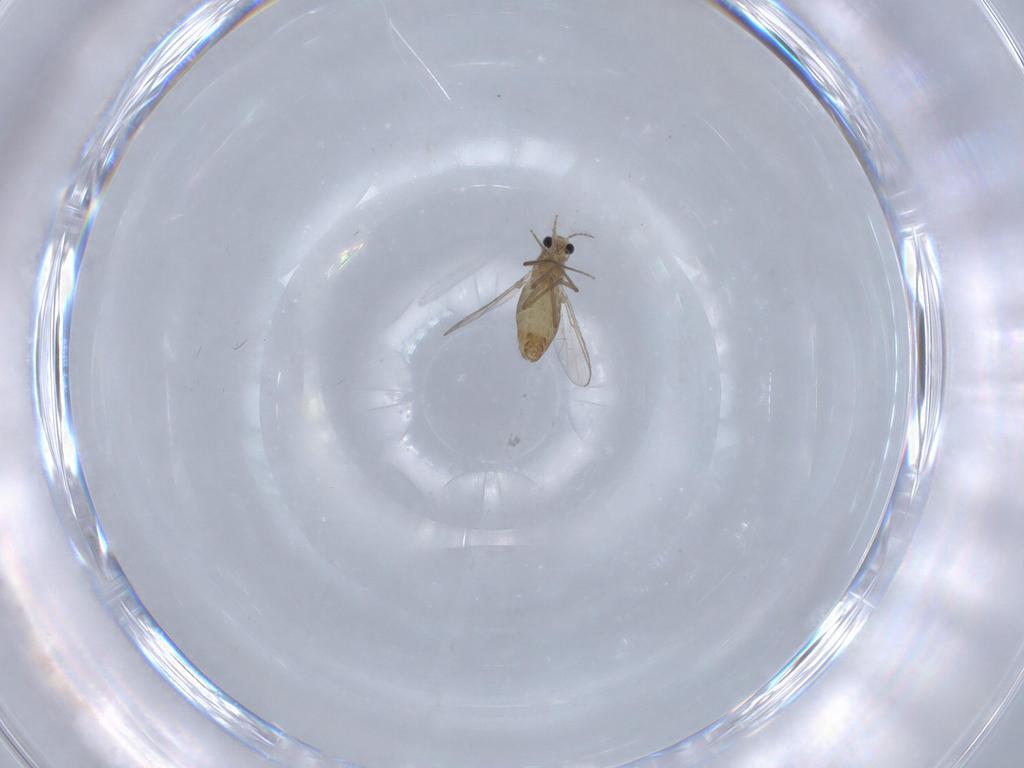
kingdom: Animalia
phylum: Arthropoda
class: Insecta
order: Diptera
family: Chironomidae
